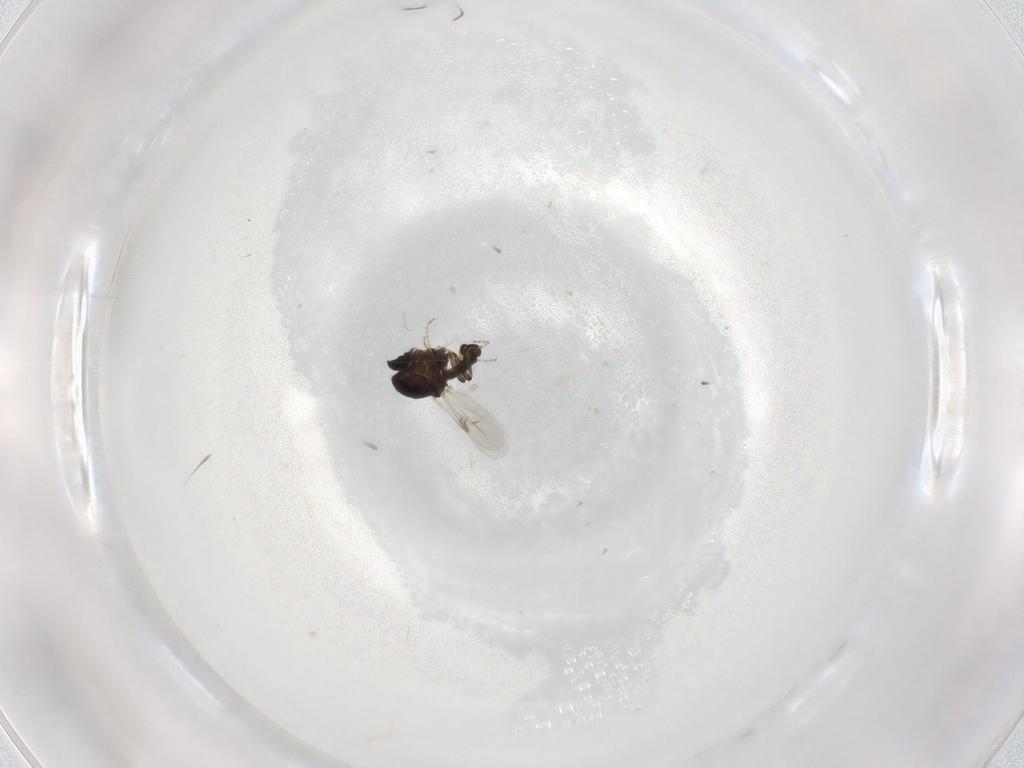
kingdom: Animalia
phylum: Arthropoda
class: Insecta
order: Diptera
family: Ceratopogonidae
